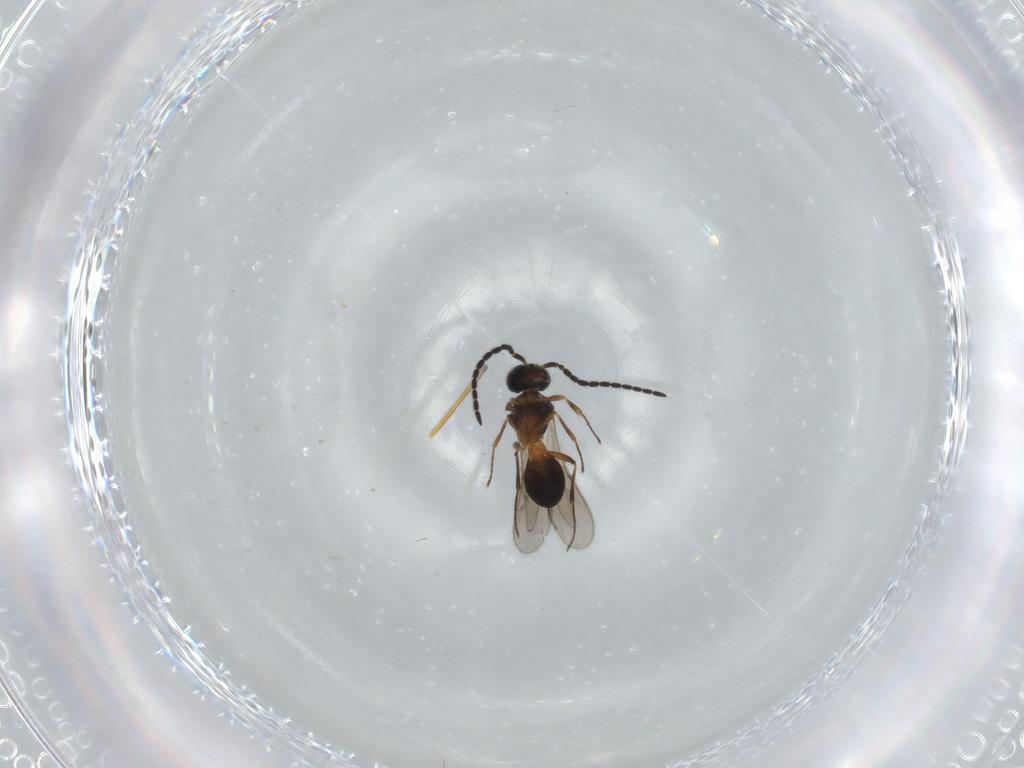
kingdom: Animalia
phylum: Arthropoda
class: Insecta
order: Hymenoptera
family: Scelionidae
